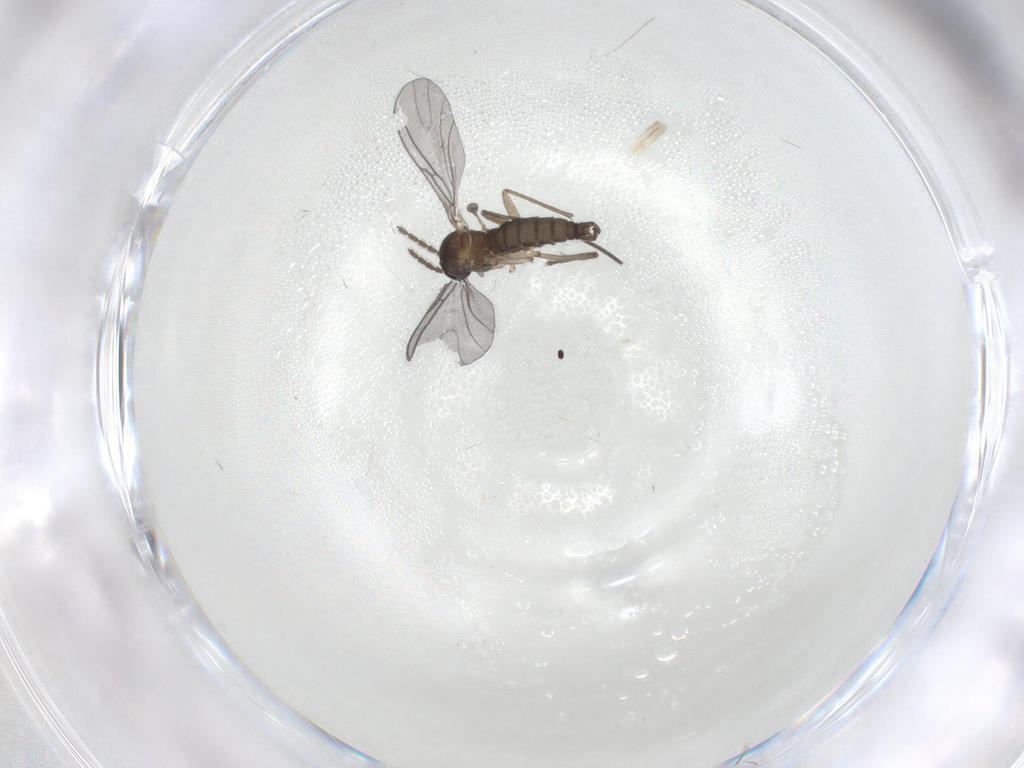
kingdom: Animalia
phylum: Arthropoda
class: Insecta
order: Diptera
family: Sciaridae
